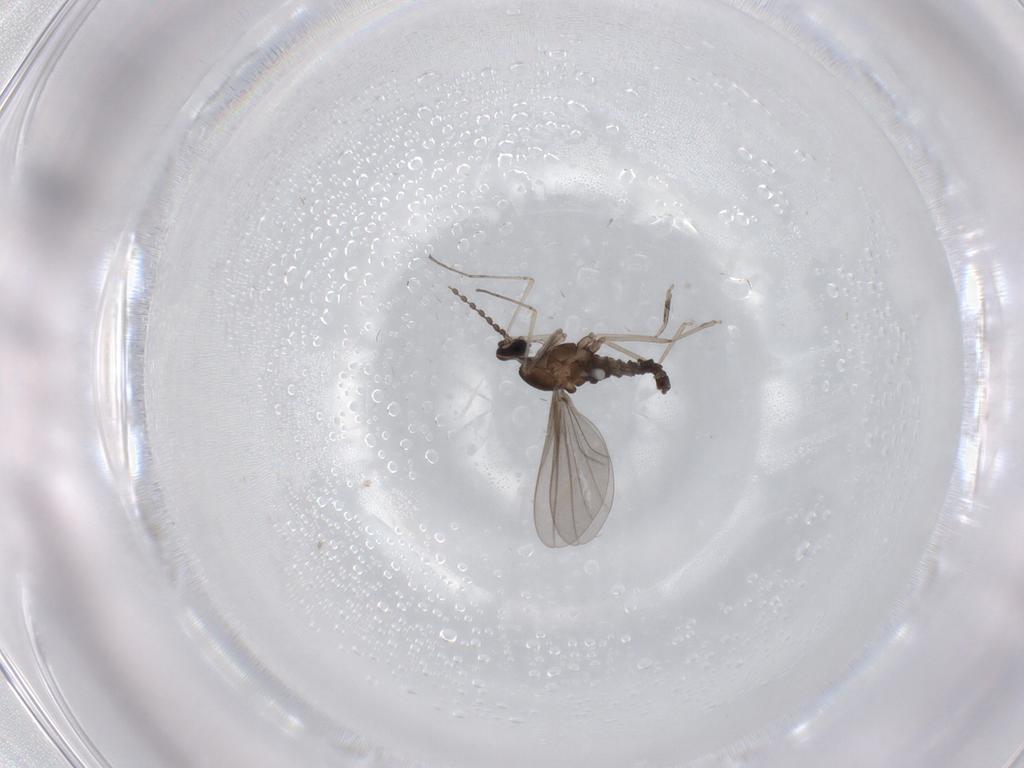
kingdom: Animalia
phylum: Arthropoda
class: Insecta
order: Diptera
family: Cecidomyiidae
